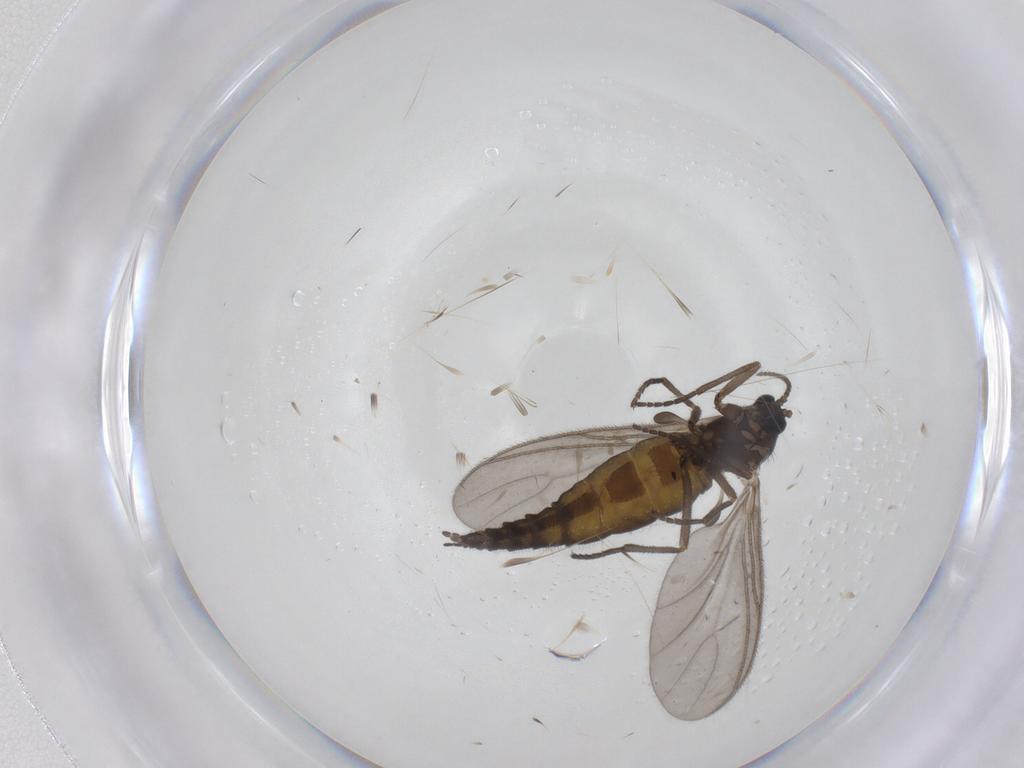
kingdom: Animalia
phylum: Arthropoda
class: Insecta
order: Diptera
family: Sciaridae
